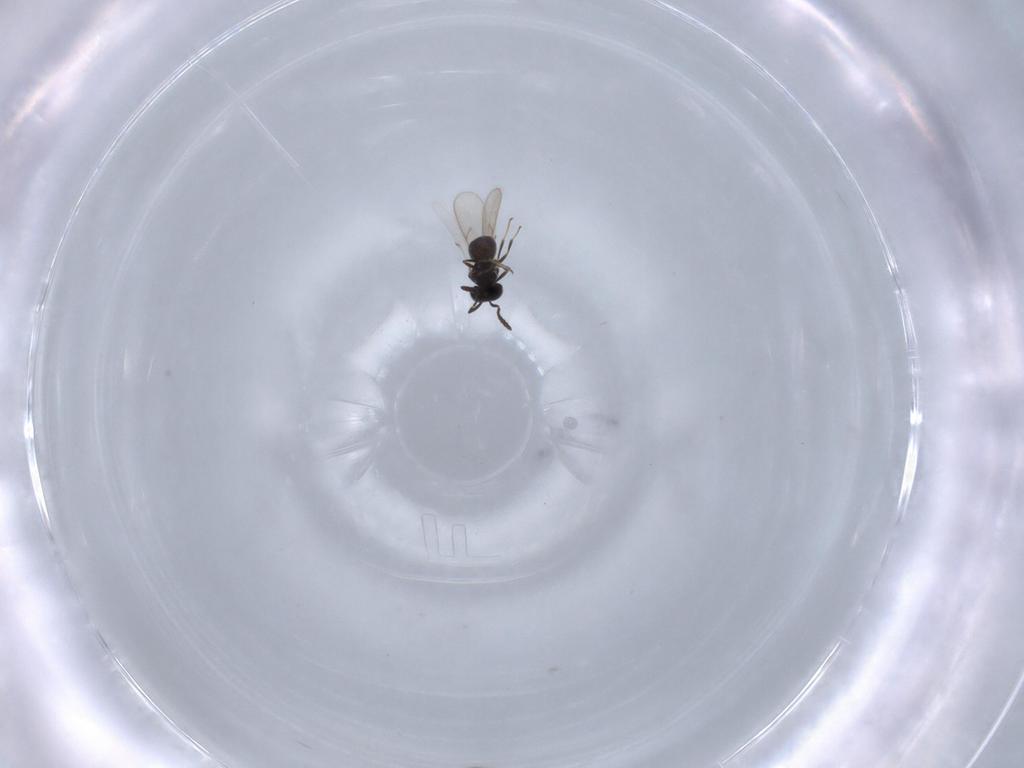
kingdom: Animalia
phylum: Arthropoda
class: Insecta
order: Hymenoptera
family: Scelionidae
